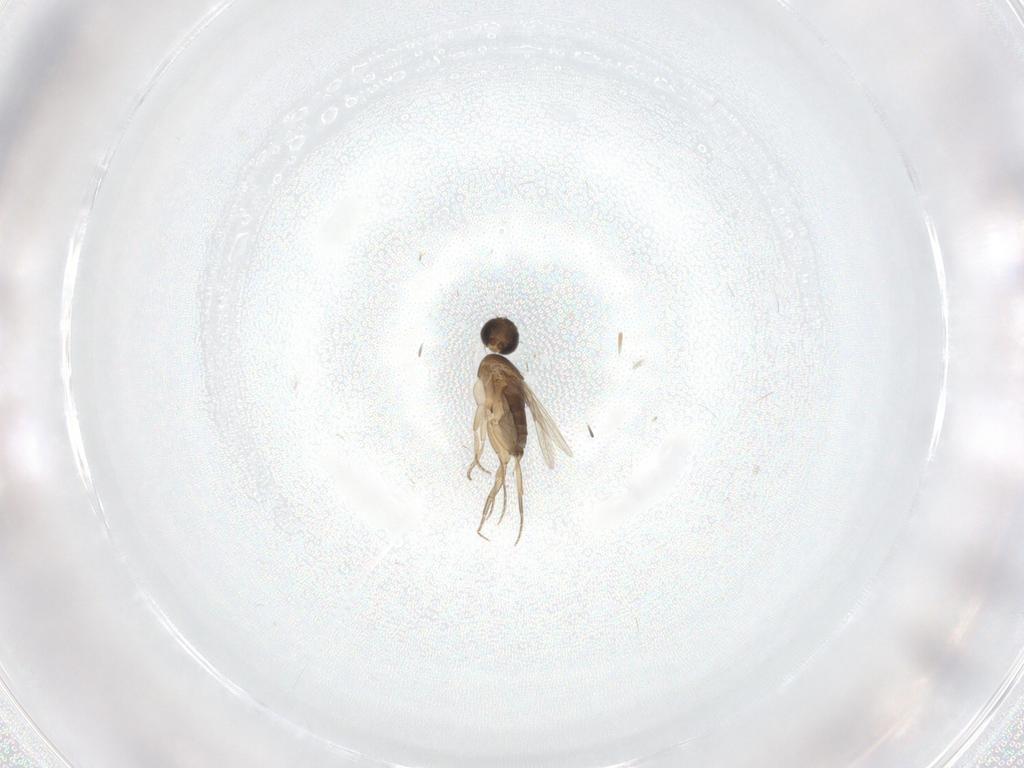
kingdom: Animalia
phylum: Arthropoda
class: Insecta
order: Diptera
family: Phoridae
